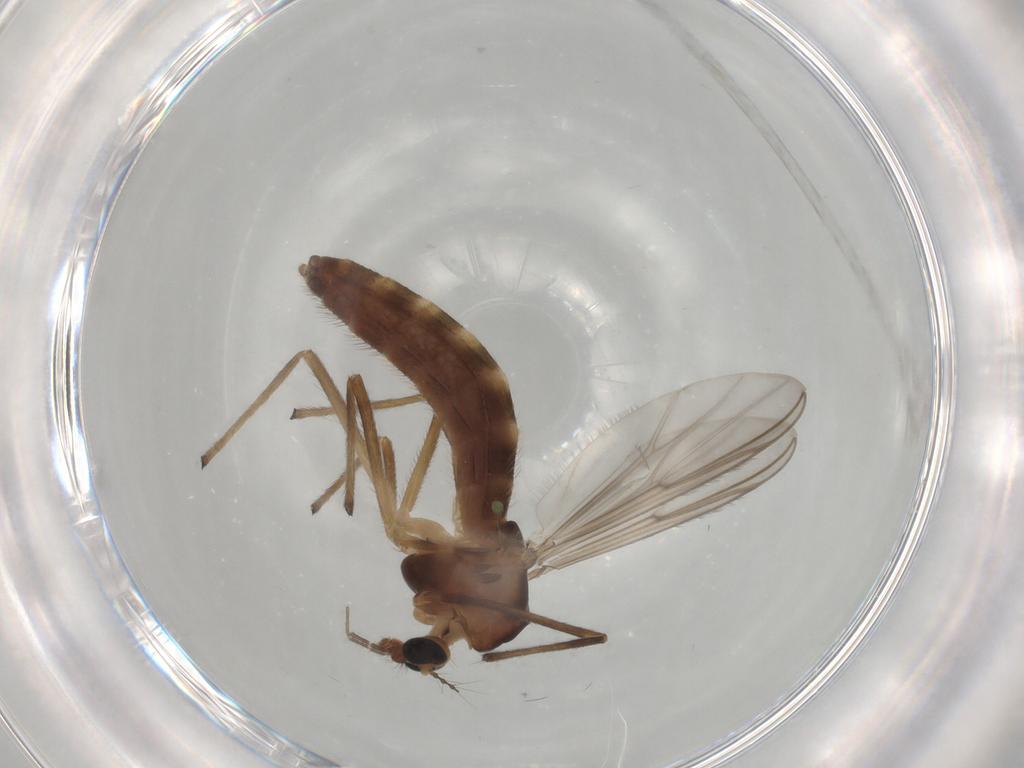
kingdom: Animalia
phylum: Arthropoda
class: Insecta
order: Diptera
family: Chironomidae
